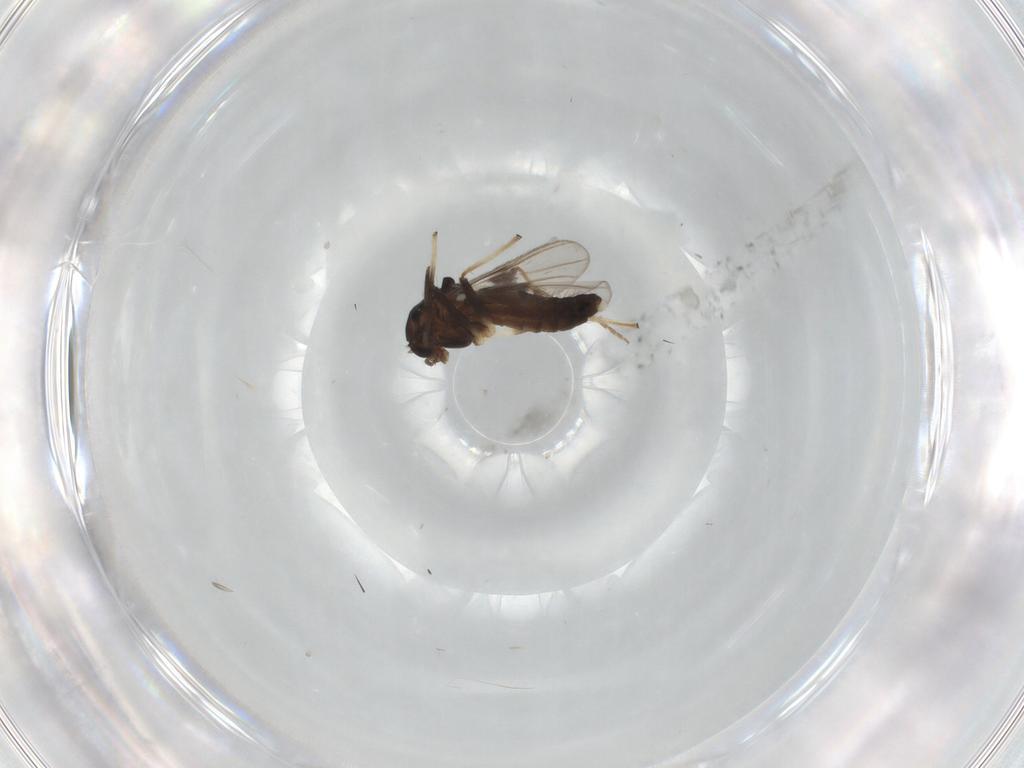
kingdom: Animalia
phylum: Arthropoda
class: Insecta
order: Diptera
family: Chironomidae
